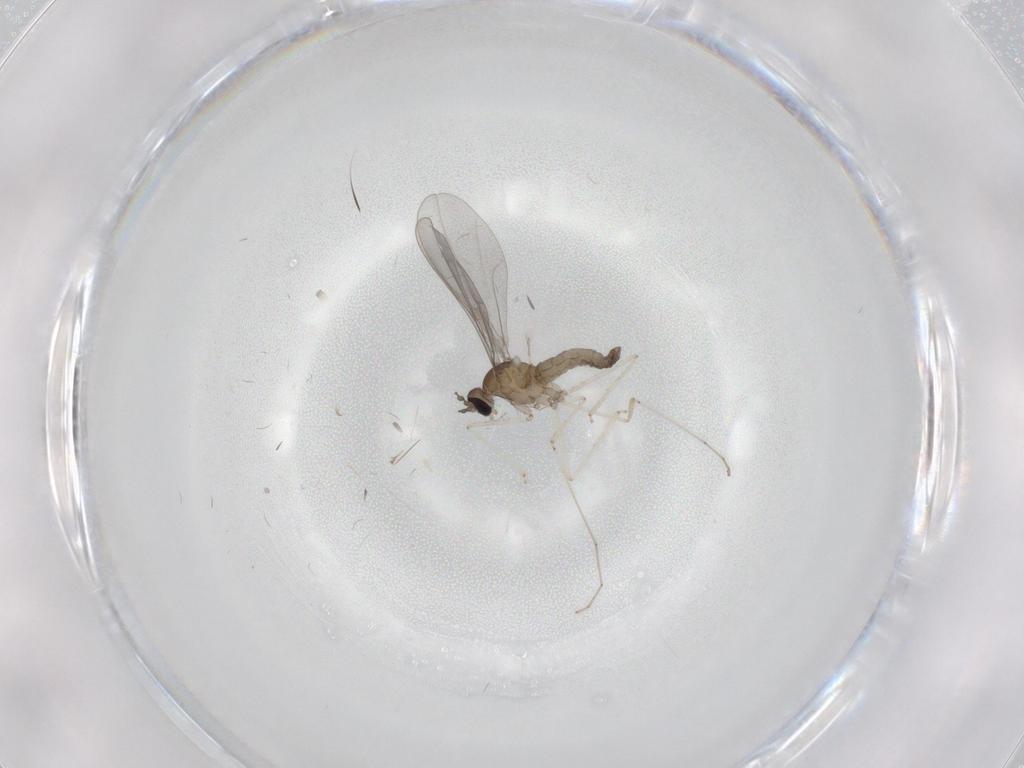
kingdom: Animalia
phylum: Arthropoda
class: Insecta
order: Diptera
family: Cecidomyiidae
